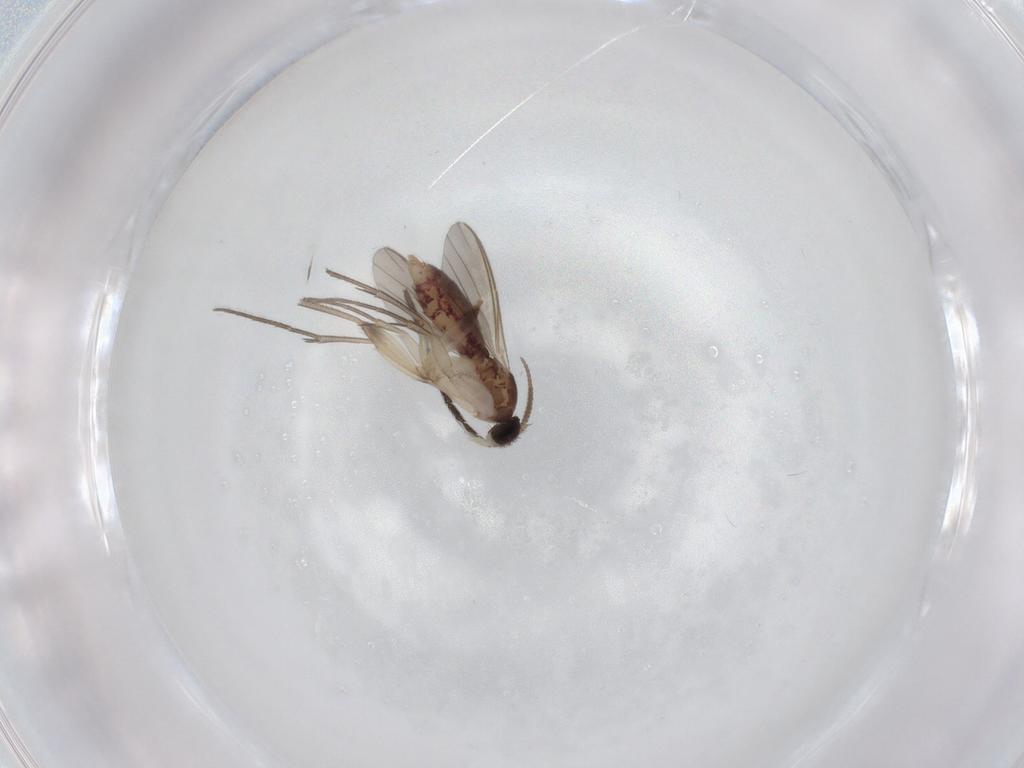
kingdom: Animalia
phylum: Arthropoda
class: Insecta
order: Diptera
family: Mycetophilidae
